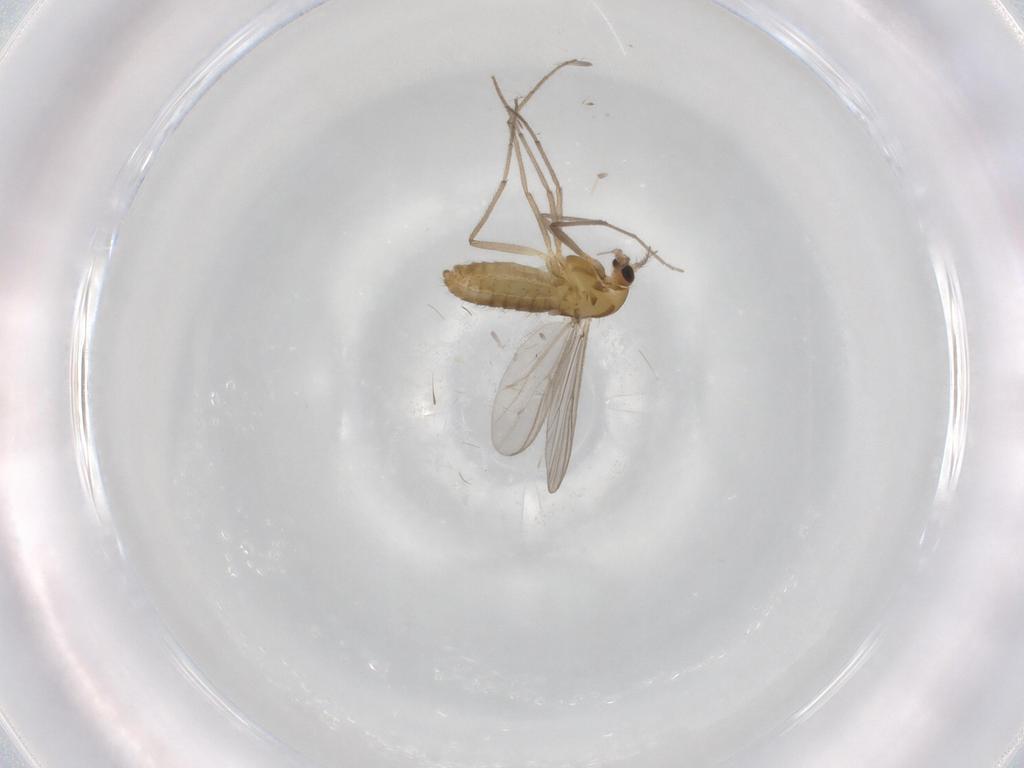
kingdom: Animalia
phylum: Arthropoda
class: Insecta
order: Diptera
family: Chironomidae
